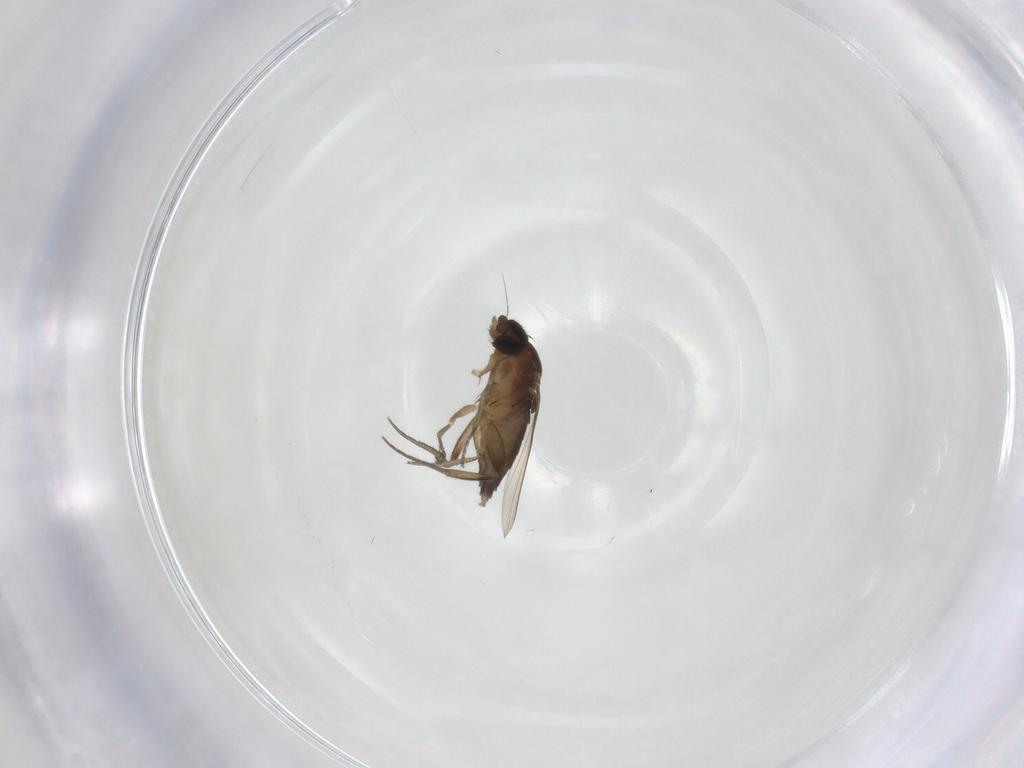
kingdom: Animalia
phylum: Arthropoda
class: Insecta
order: Diptera
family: Phoridae
